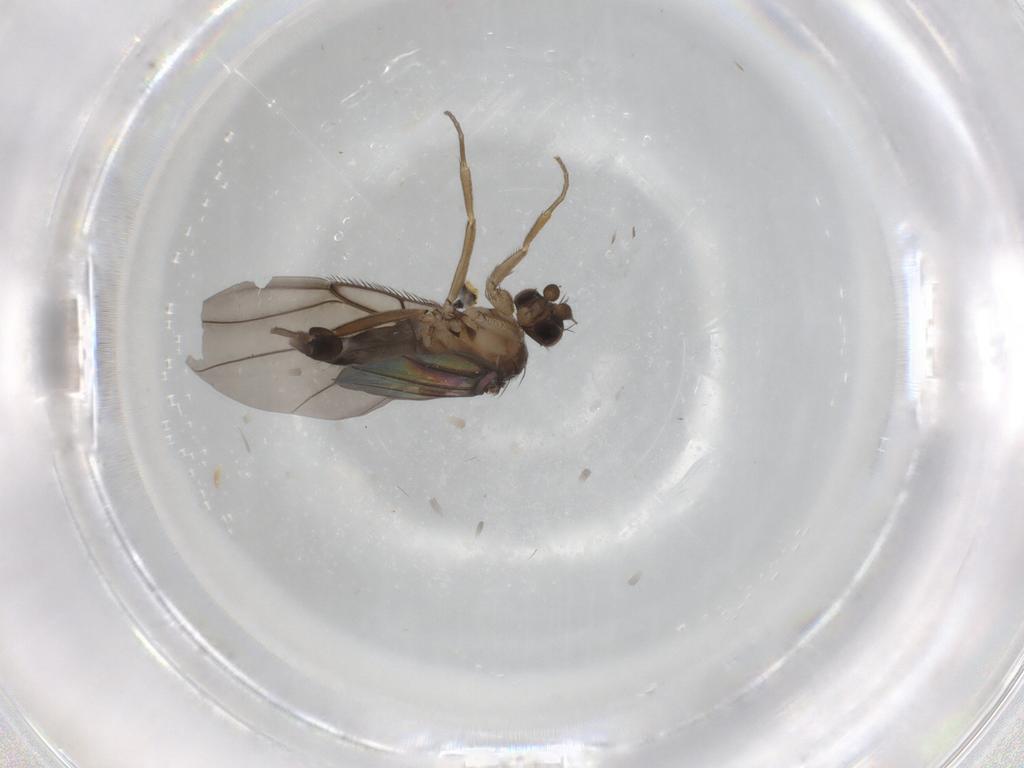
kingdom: Animalia
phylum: Arthropoda
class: Insecta
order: Diptera
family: Phoridae
